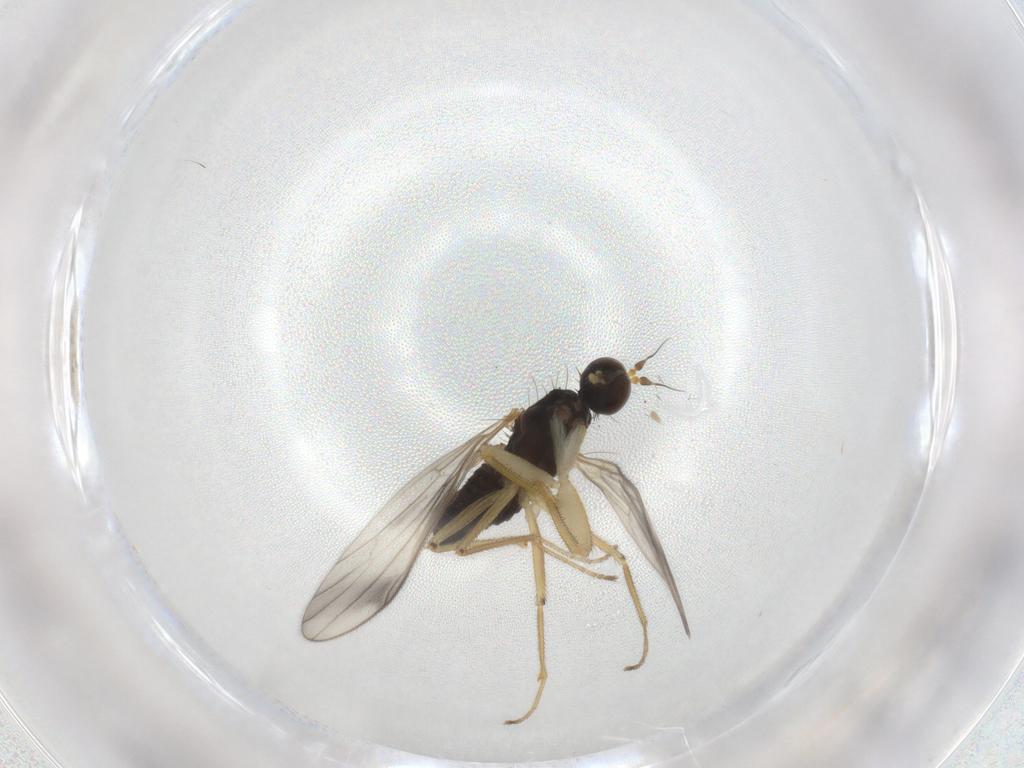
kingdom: Animalia
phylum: Arthropoda
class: Insecta
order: Diptera
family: Empididae
